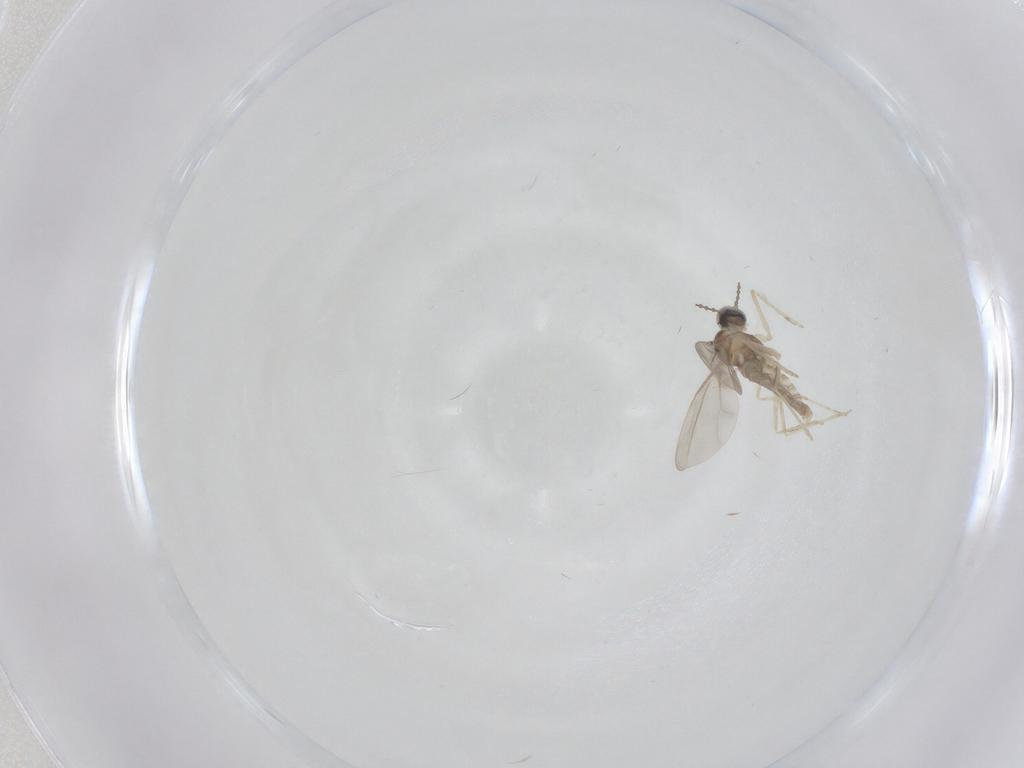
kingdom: Animalia
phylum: Arthropoda
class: Insecta
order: Diptera
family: Cecidomyiidae
